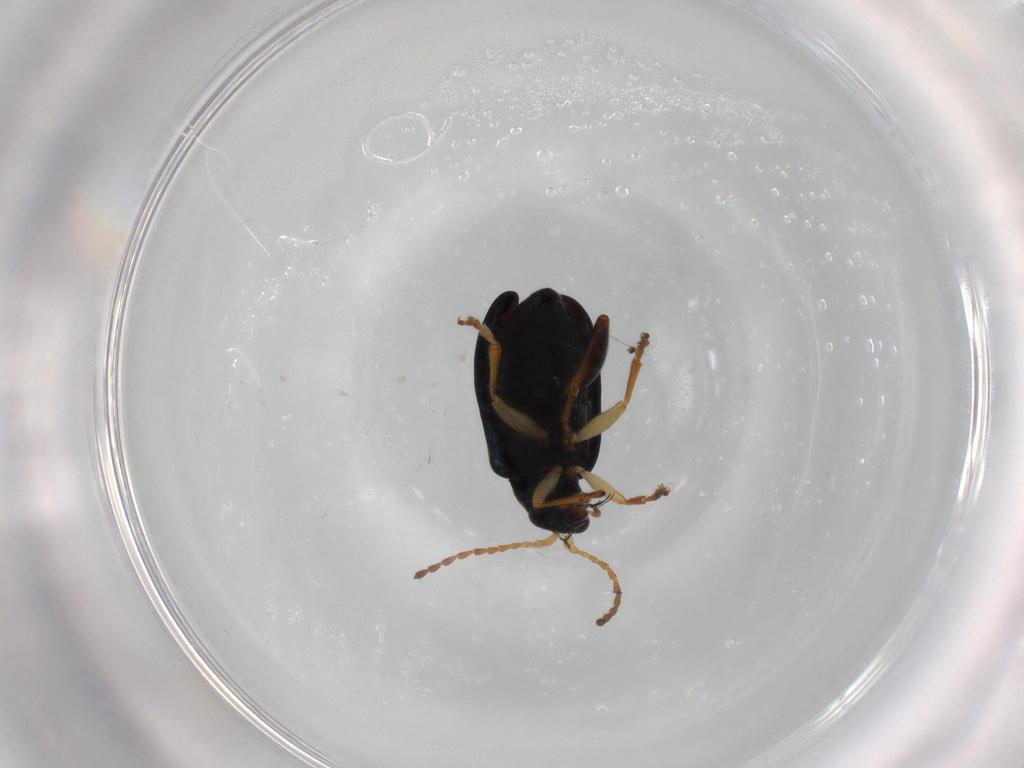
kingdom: Animalia
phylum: Arthropoda
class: Insecta
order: Coleoptera
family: Chrysomelidae
